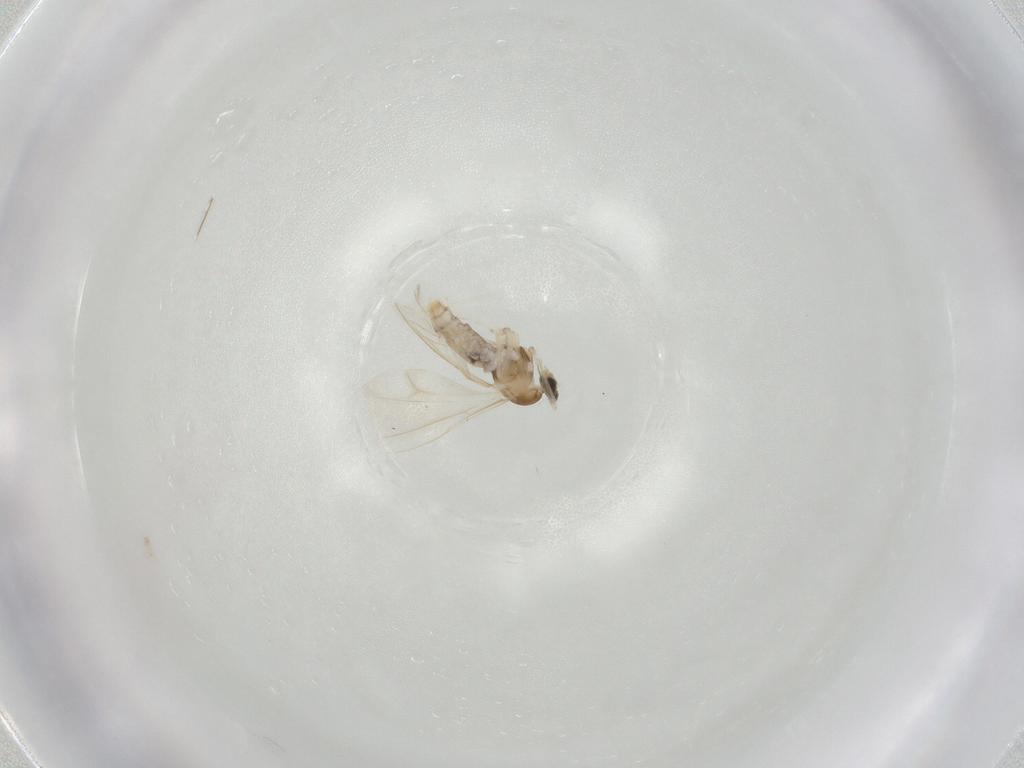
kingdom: Animalia
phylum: Arthropoda
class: Insecta
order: Diptera
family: Cecidomyiidae
